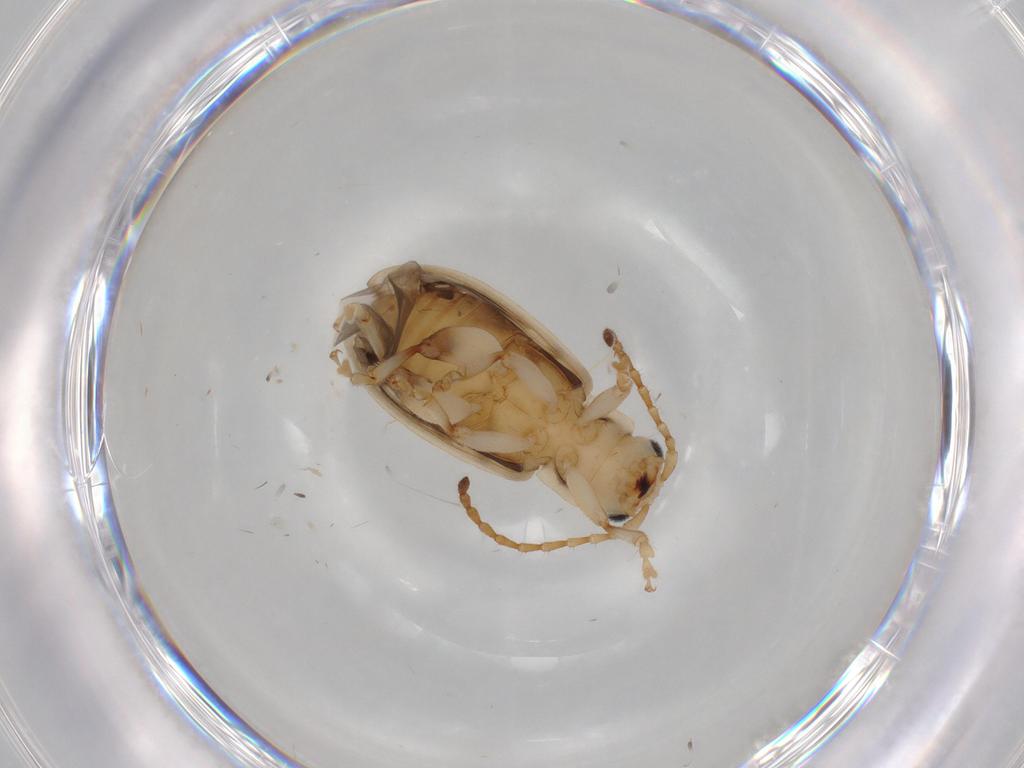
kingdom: Animalia
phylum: Arthropoda
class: Insecta
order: Coleoptera
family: Chrysomelidae
